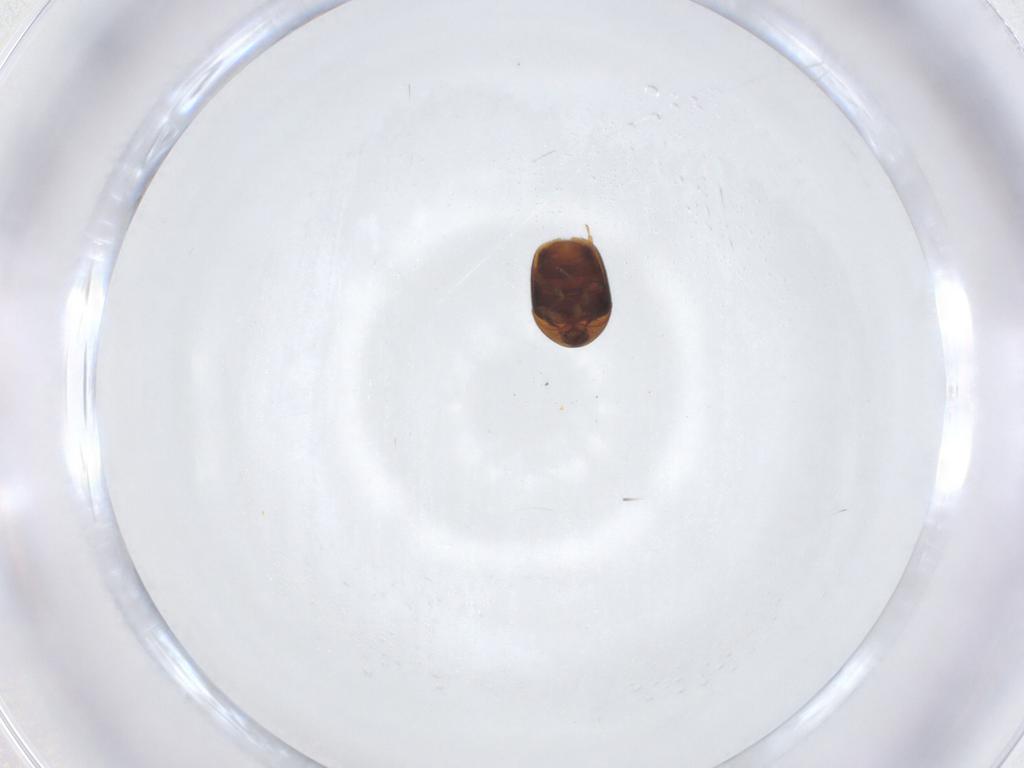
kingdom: Animalia
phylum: Arthropoda
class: Insecta
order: Coleoptera
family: Corylophidae
